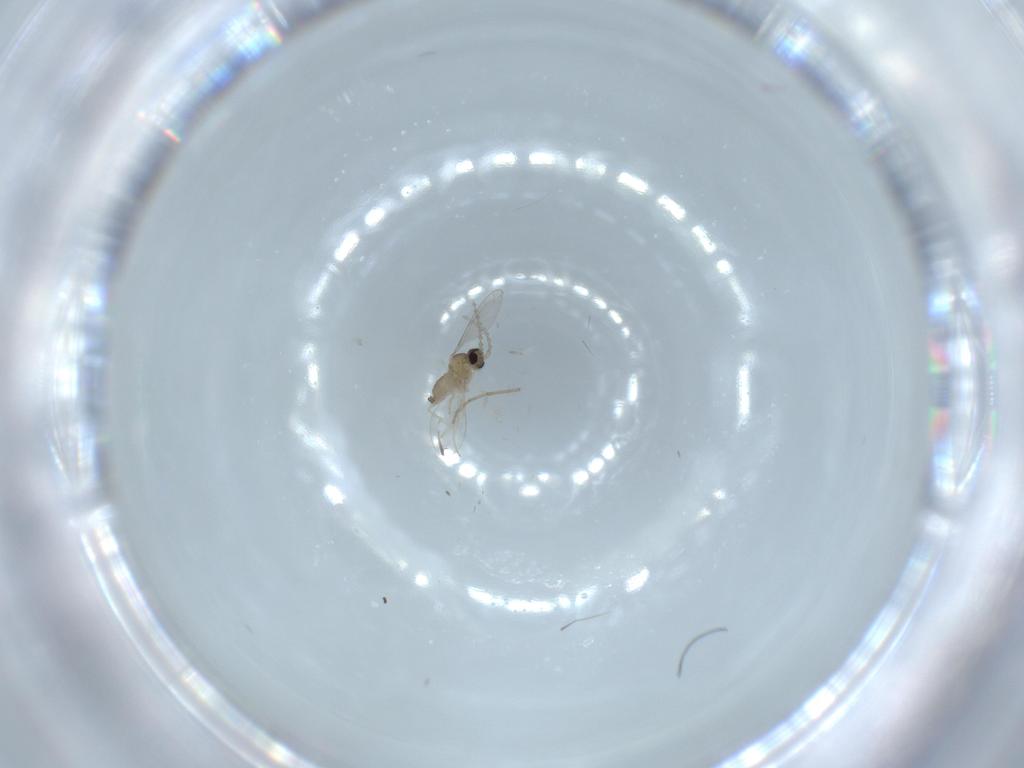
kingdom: Animalia
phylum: Arthropoda
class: Insecta
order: Diptera
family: Cecidomyiidae
